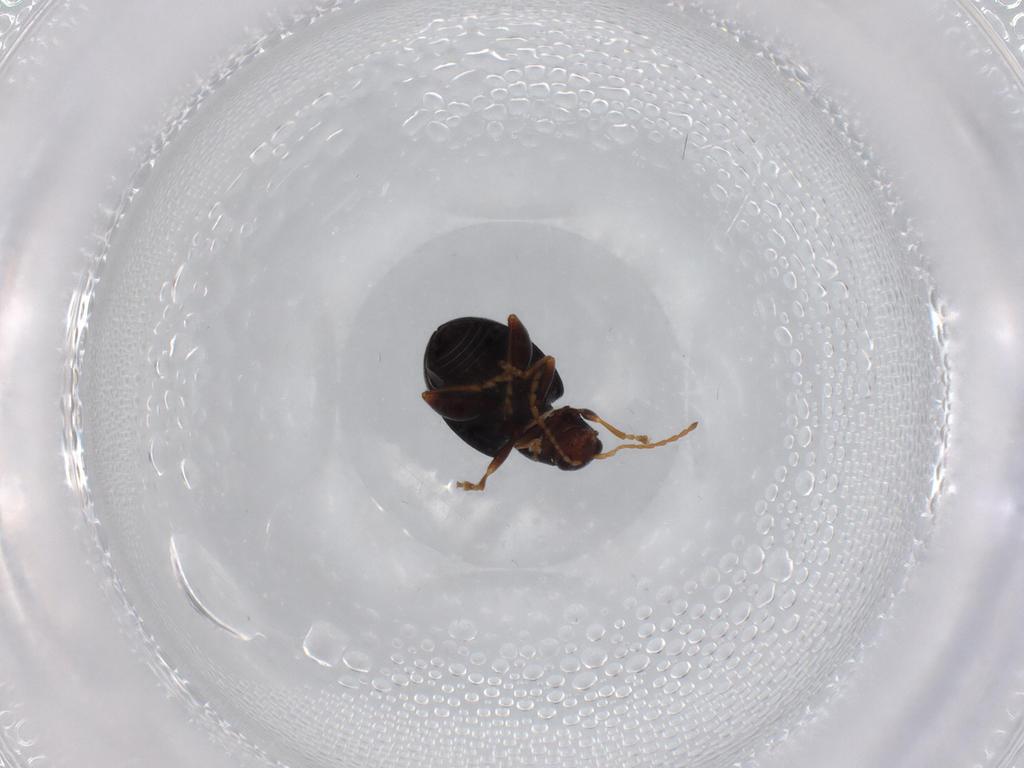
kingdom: Animalia
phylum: Arthropoda
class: Insecta
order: Coleoptera
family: Chrysomelidae
